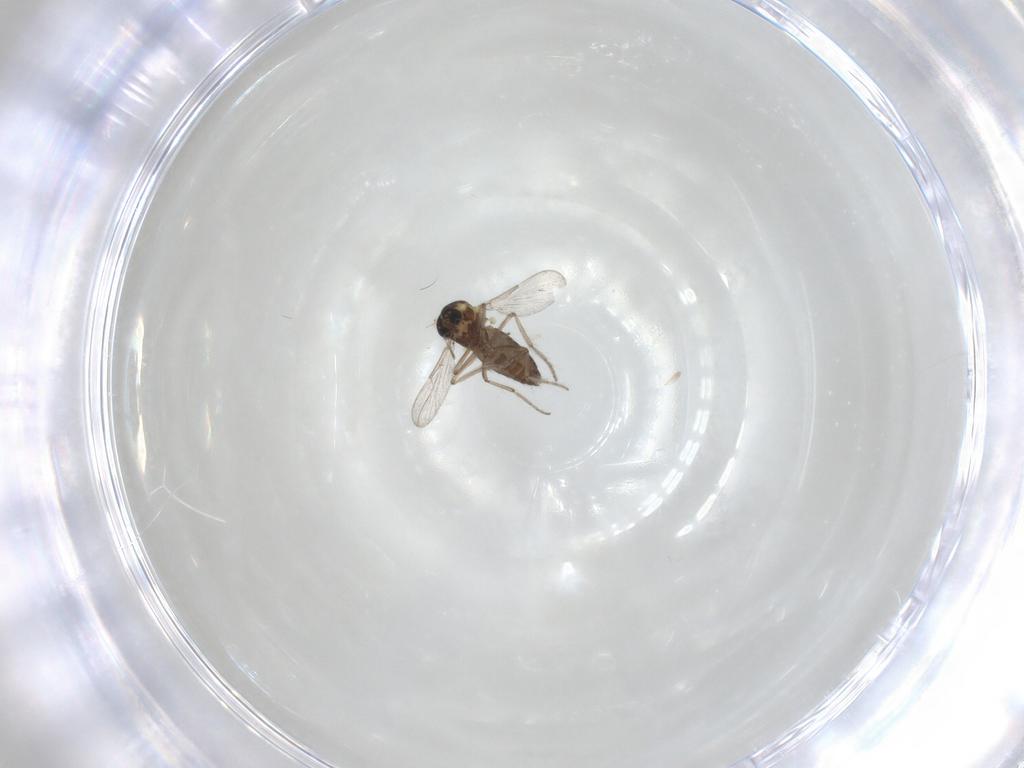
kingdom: Animalia
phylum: Arthropoda
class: Insecta
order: Diptera
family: Ceratopogonidae
